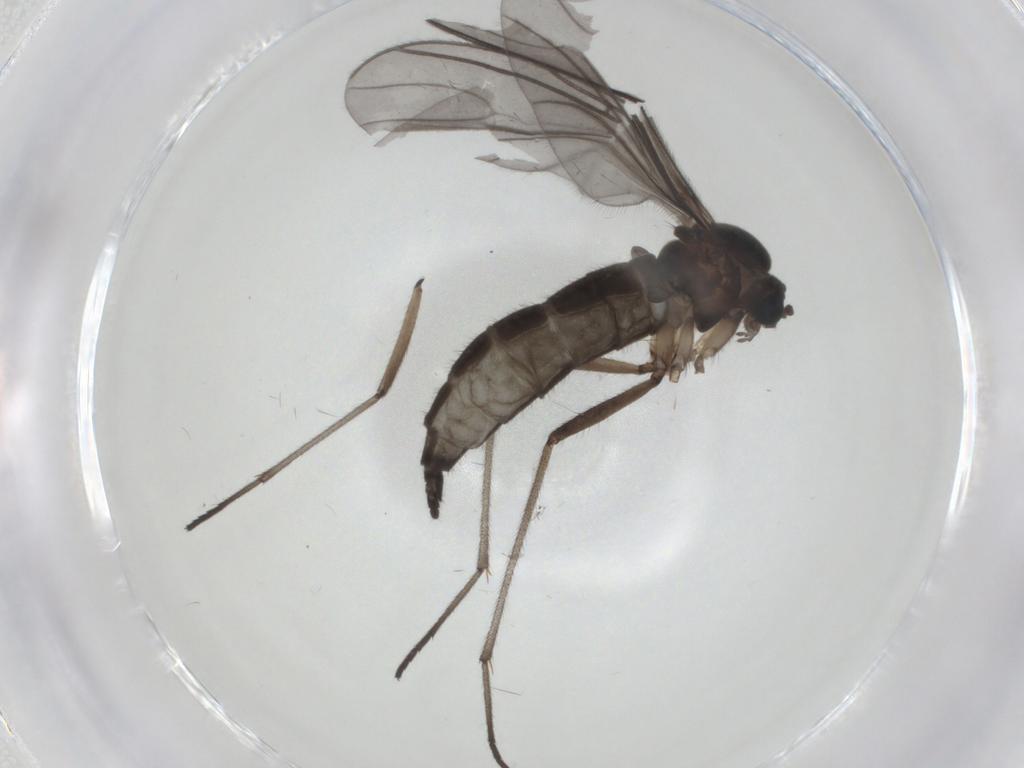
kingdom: Animalia
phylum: Arthropoda
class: Insecta
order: Diptera
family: Sciaridae
